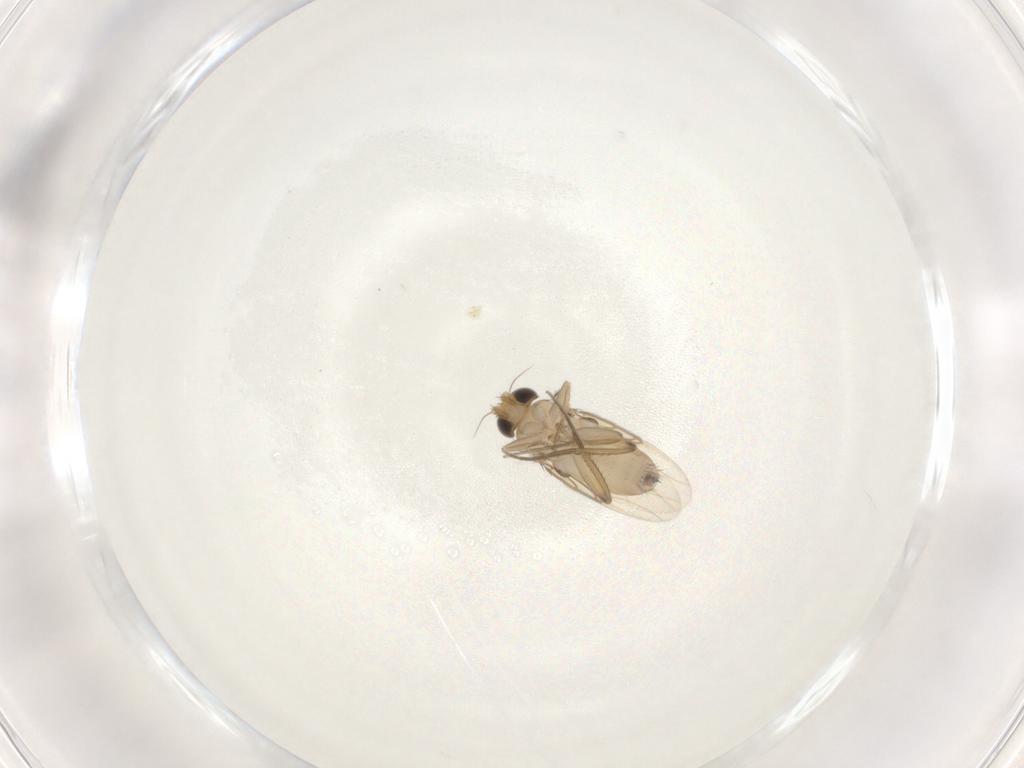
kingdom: Animalia
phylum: Arthropoda
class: Insecta
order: Diptera
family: Phoridae
